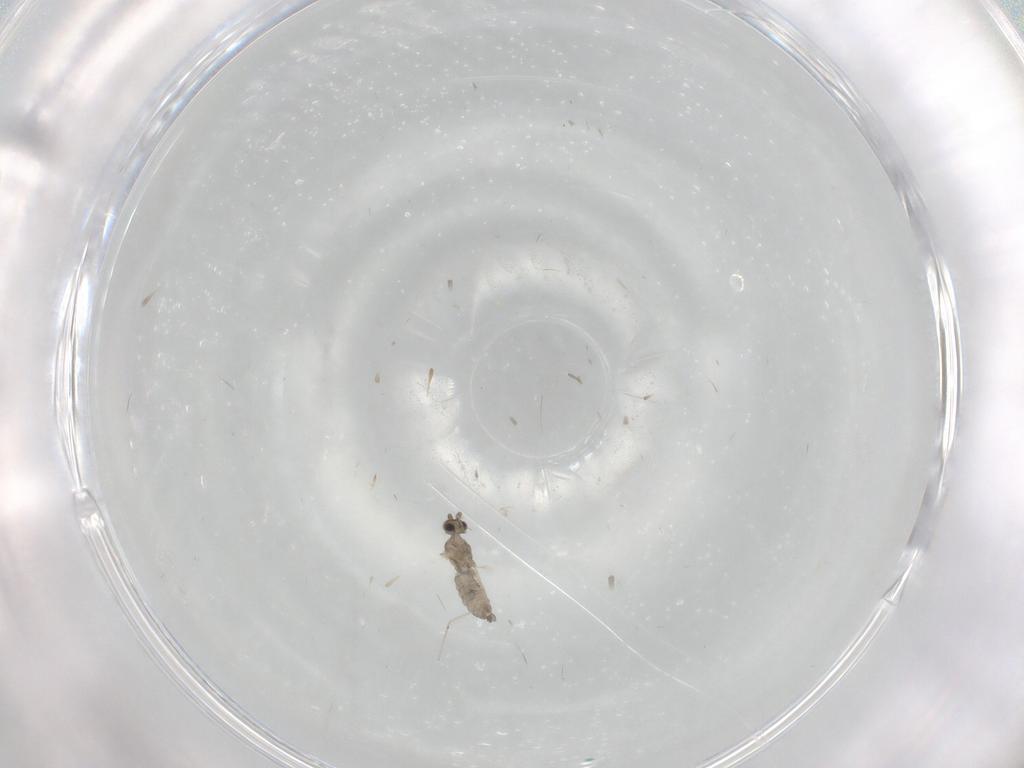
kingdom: Animalia
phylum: Arthropoda
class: Insecta
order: Diptera
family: Cecidomyiidae
